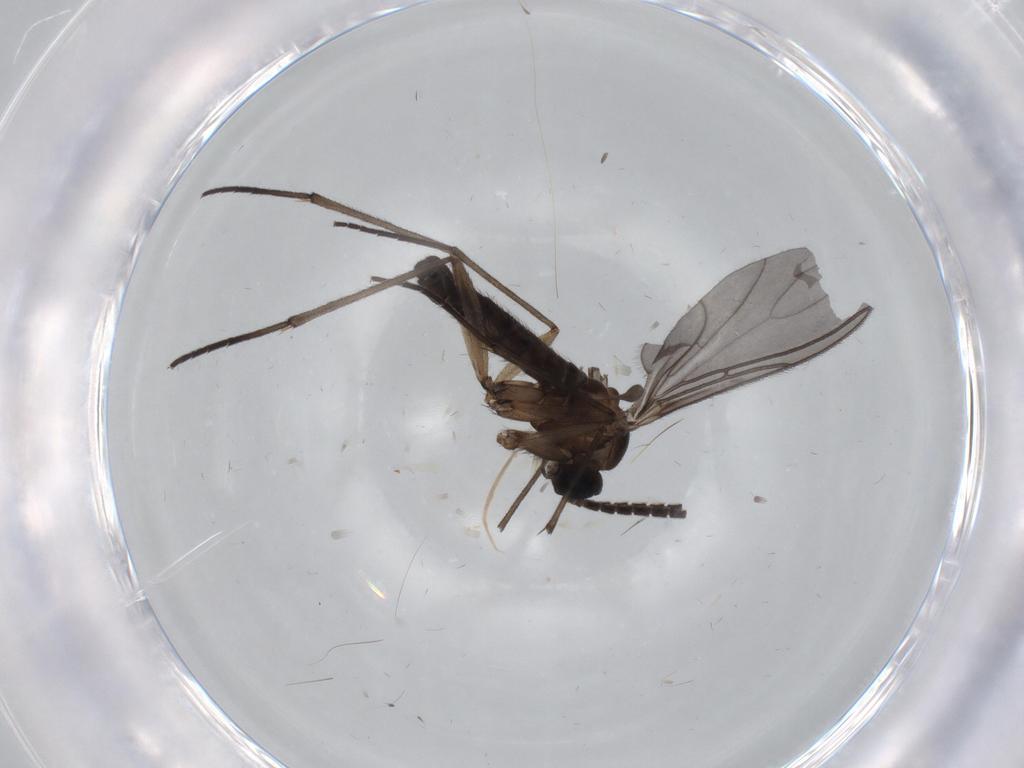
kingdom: Animalia
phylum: Arthropoda
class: Insecta
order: Diptera
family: Sciaridae
